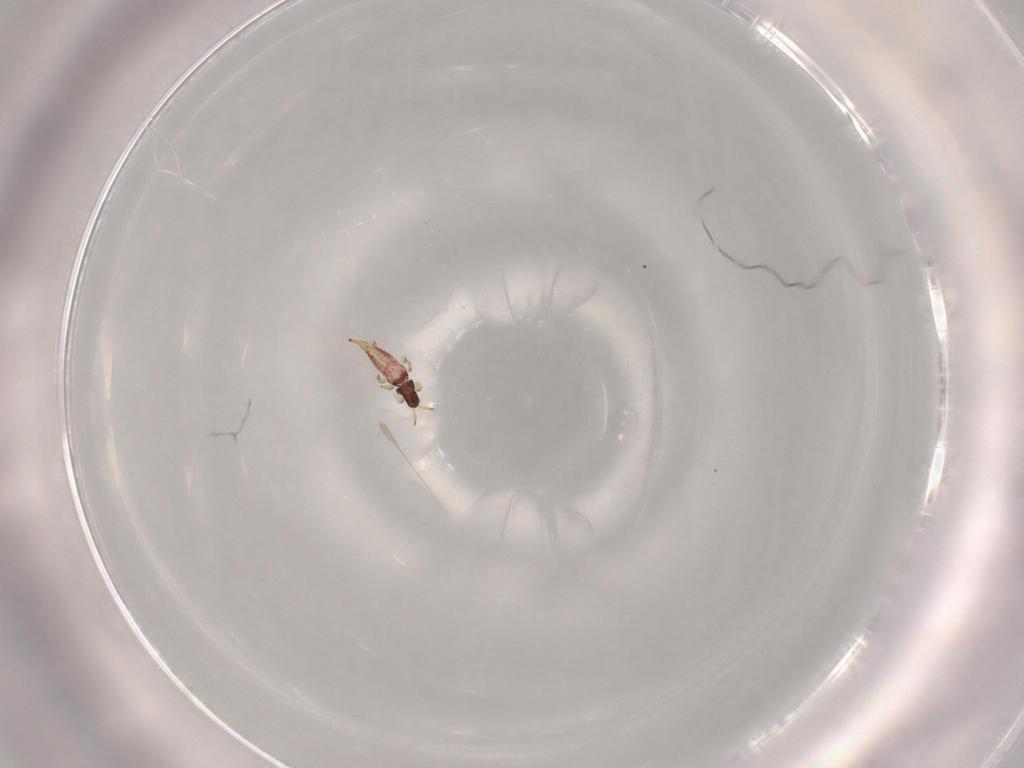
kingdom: Animalia
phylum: Arthropoda
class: Insecta
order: Thysanoptera
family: Phlaeothripidae
